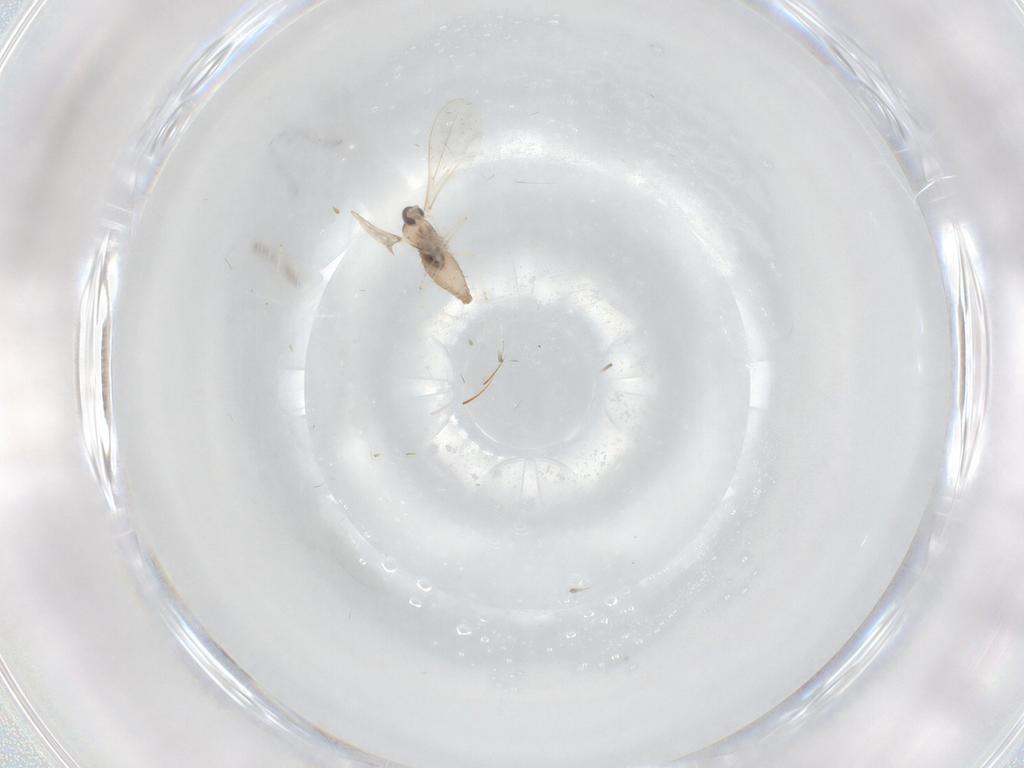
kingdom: Animalia
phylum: Arthropoda
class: Insecta
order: Diptera
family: Cecidomyiidae
